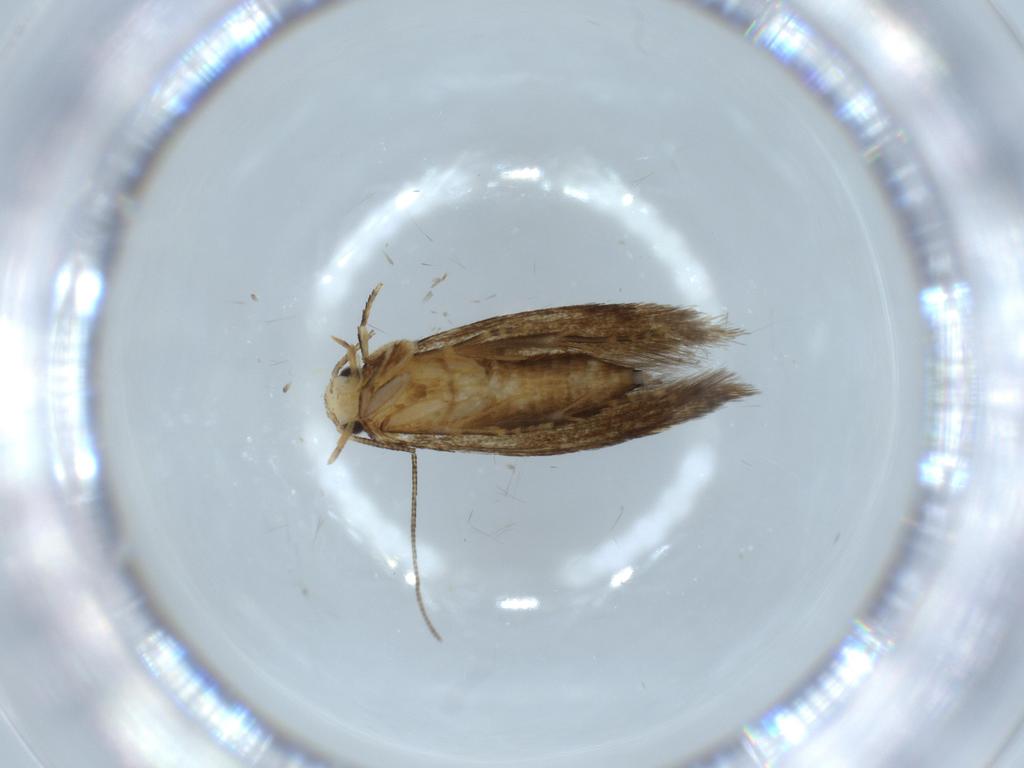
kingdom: Animalia
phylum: Arthropoda
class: Insecta
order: Lepidoptera
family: Tineidae
